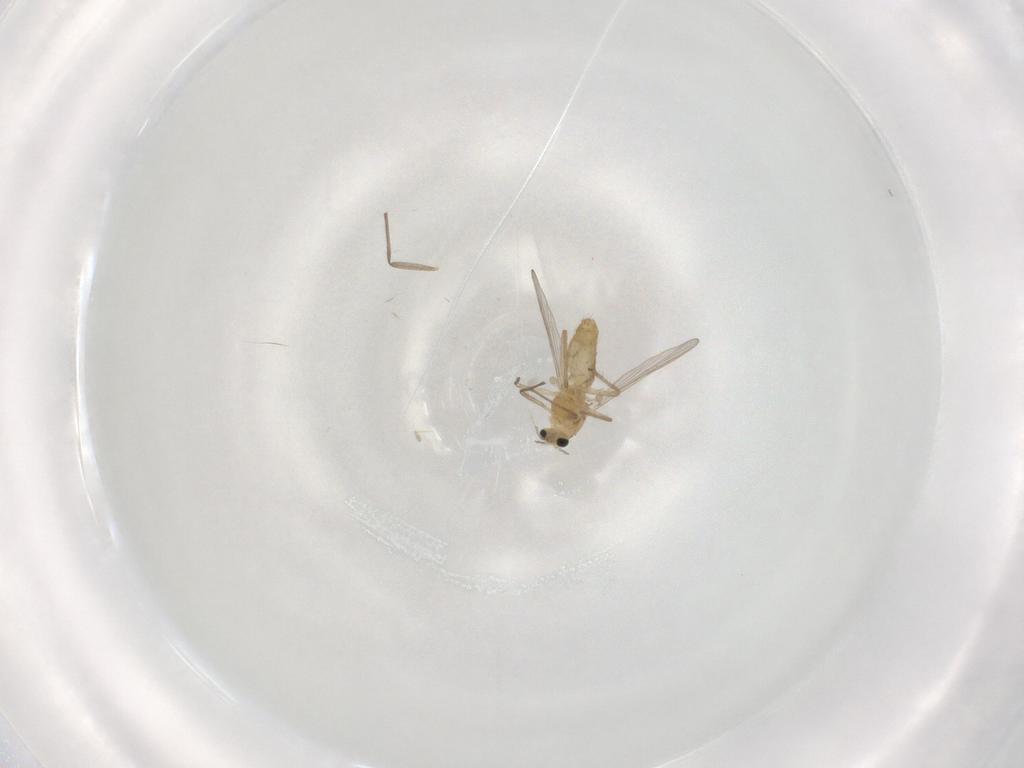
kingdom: Animalia
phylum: Arthropoda
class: Insecta
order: Diptera
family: Chironomidae
